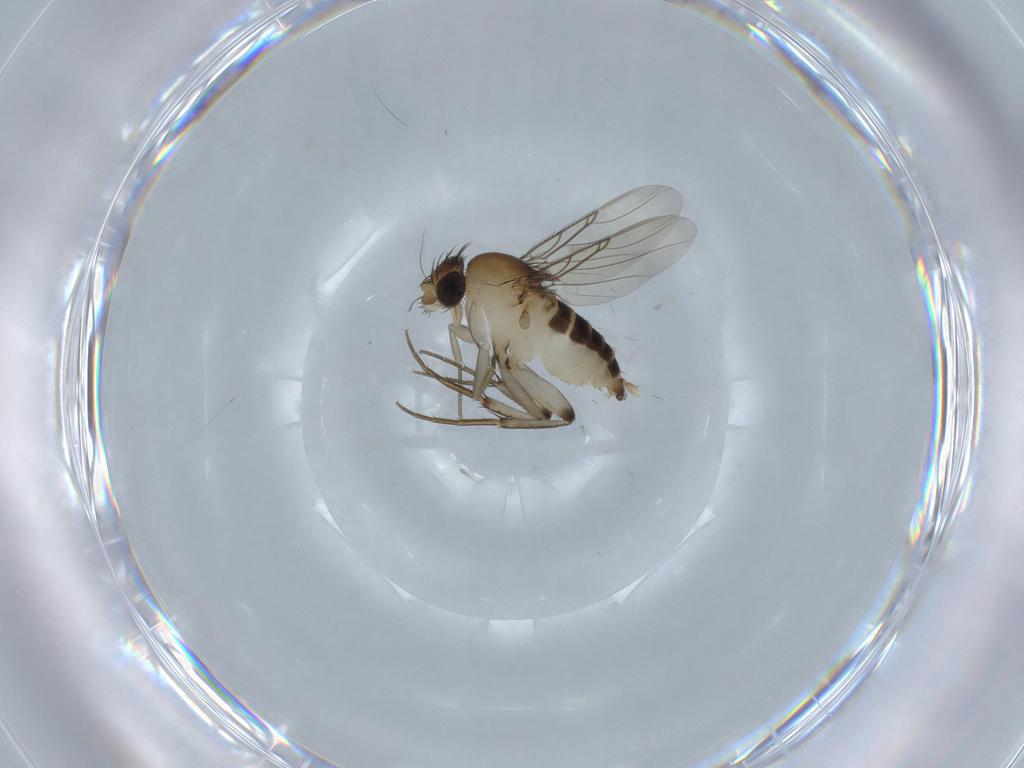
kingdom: Animalia
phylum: Arthropoda
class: Insecta
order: Diptera
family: Phoridae
